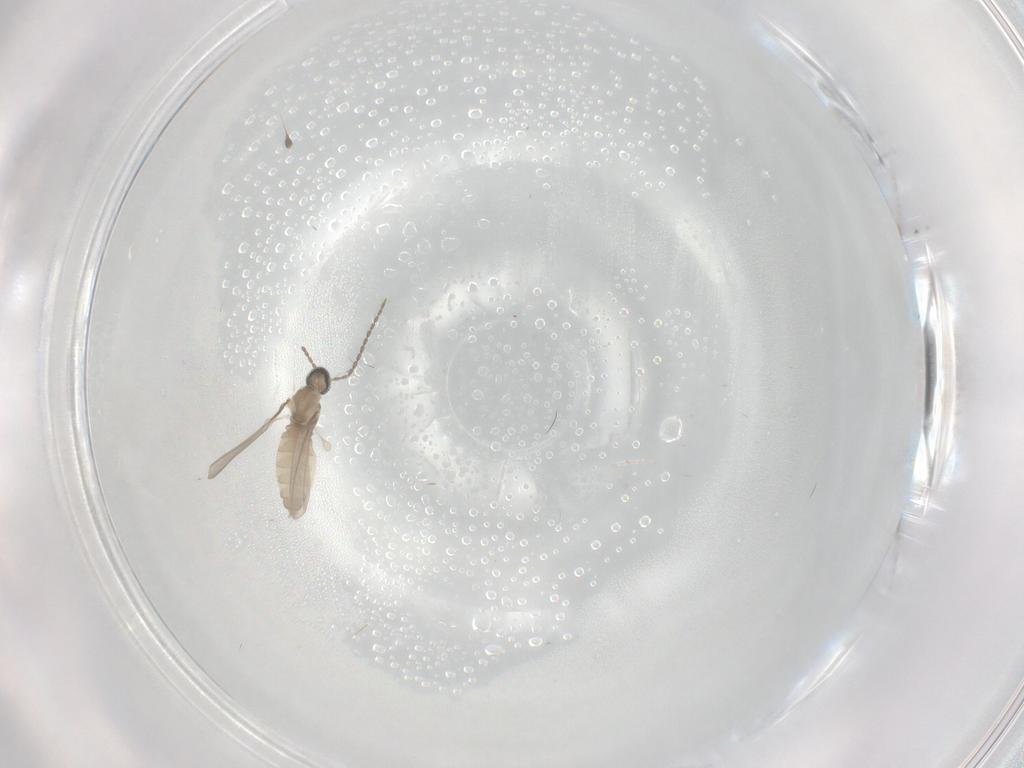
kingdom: Animalia
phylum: Arthropoda
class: Insecta
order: Diptera
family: Cecidomyiidae
